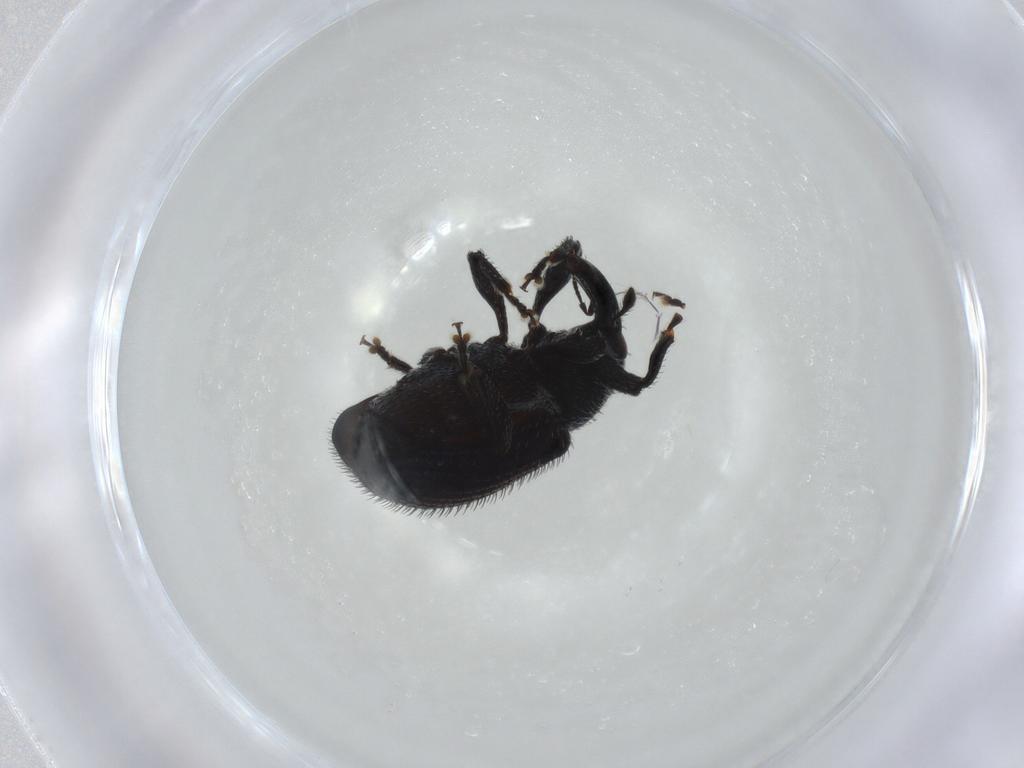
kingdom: Animalia
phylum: Arthropoda
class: Insecta
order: Coleoptera
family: Curculionidae
